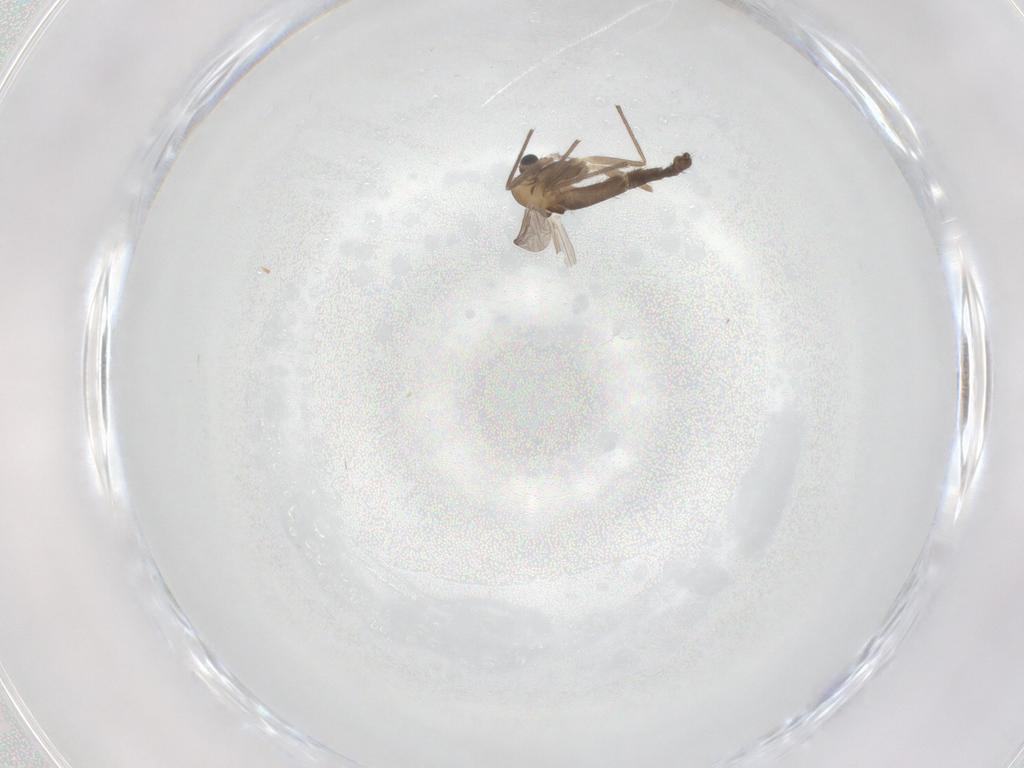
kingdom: Animalia
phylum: Arthropoda
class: Insecta
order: Diptera
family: Chironomidae
